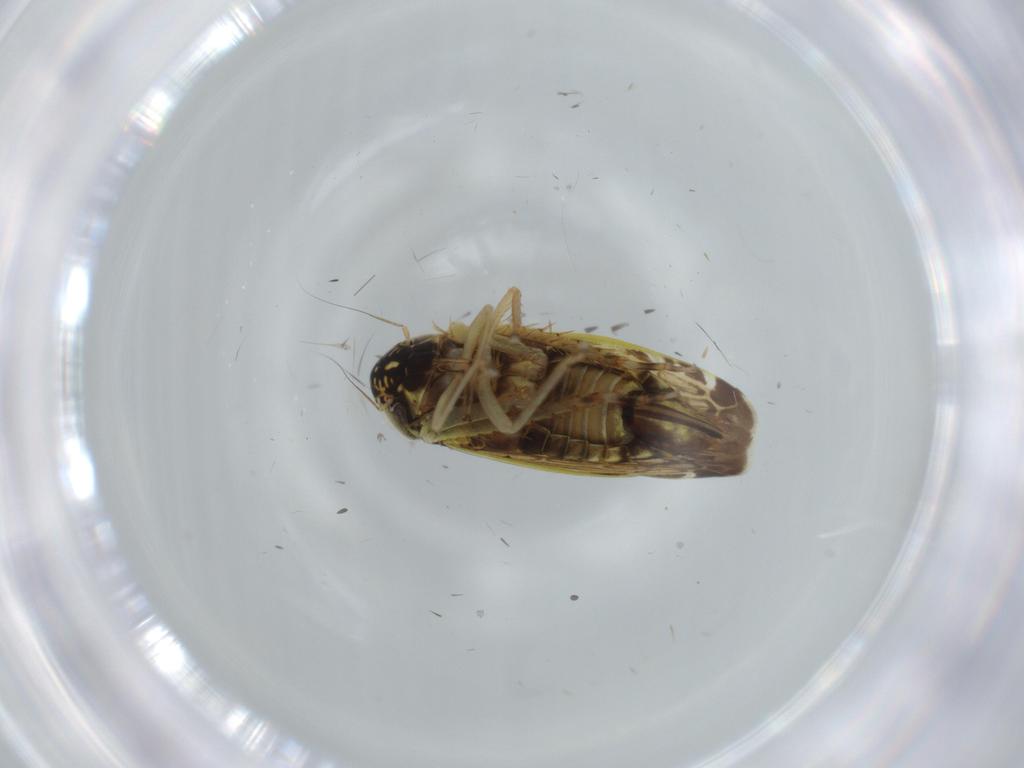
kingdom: Animalia
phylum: Arthropoda
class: Insecta
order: Hemiptera
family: Cicadellidae
